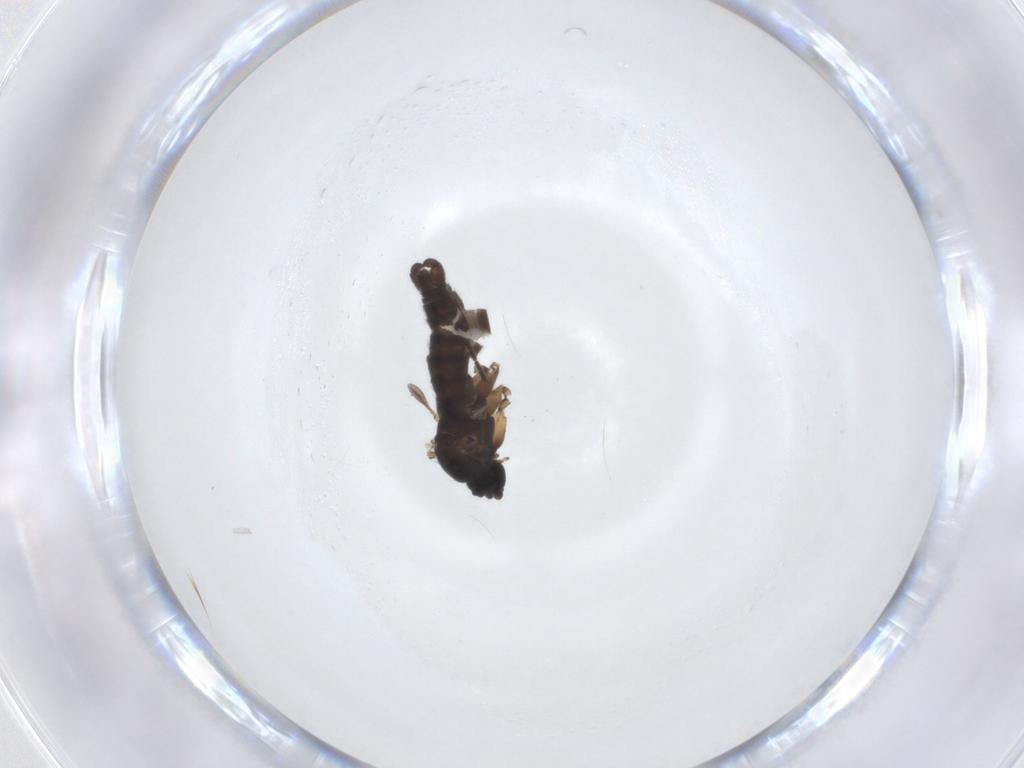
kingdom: Animalia
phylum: Arthropoda
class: Insecta
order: Diptera
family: Sciaridae
